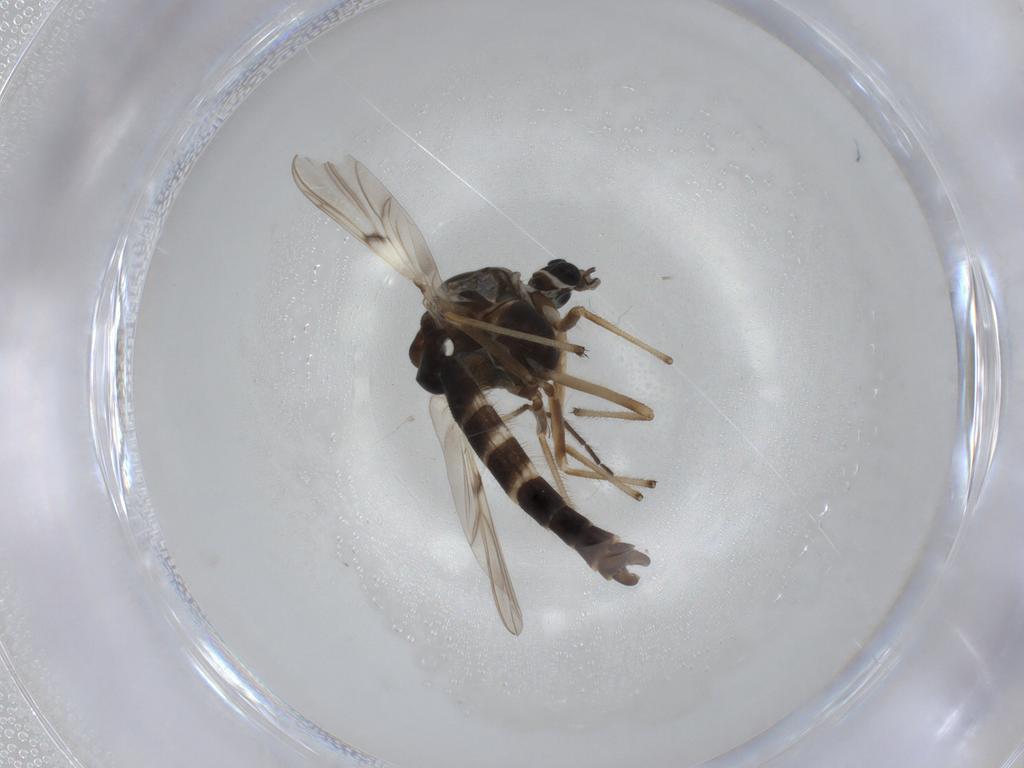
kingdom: Animalia
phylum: Arthropoda
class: Insecta
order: Diptera
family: Chironomidae
